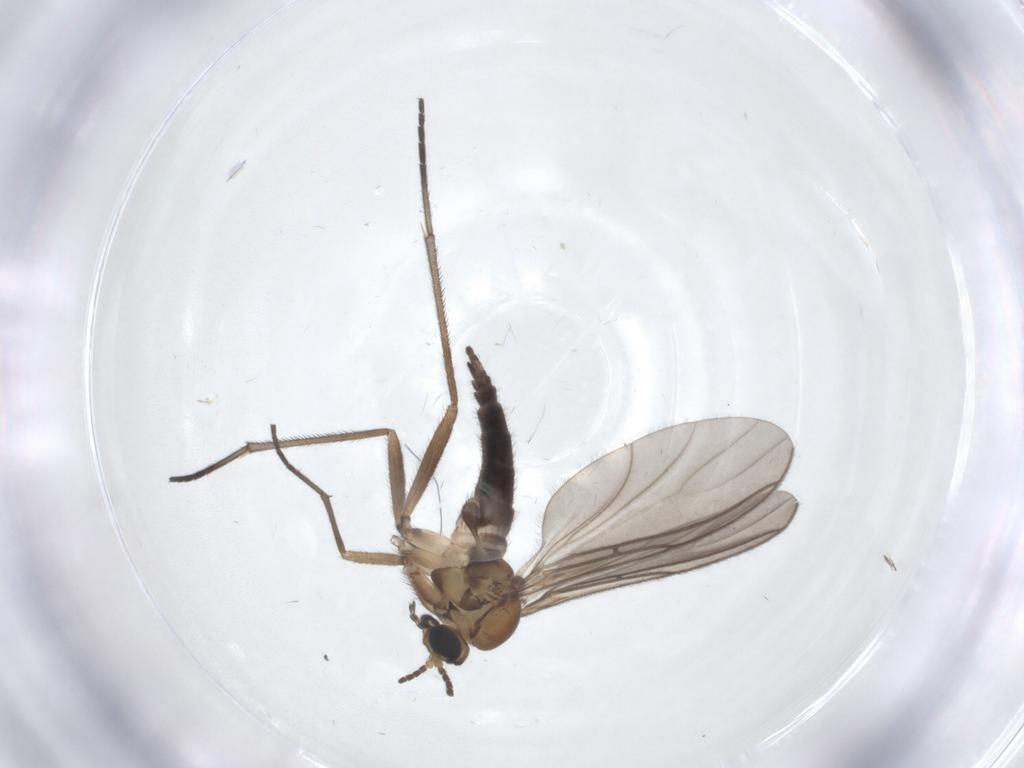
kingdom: Animalia
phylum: Arthropoda
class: Insecta
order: Diptera
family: Sciaridae
